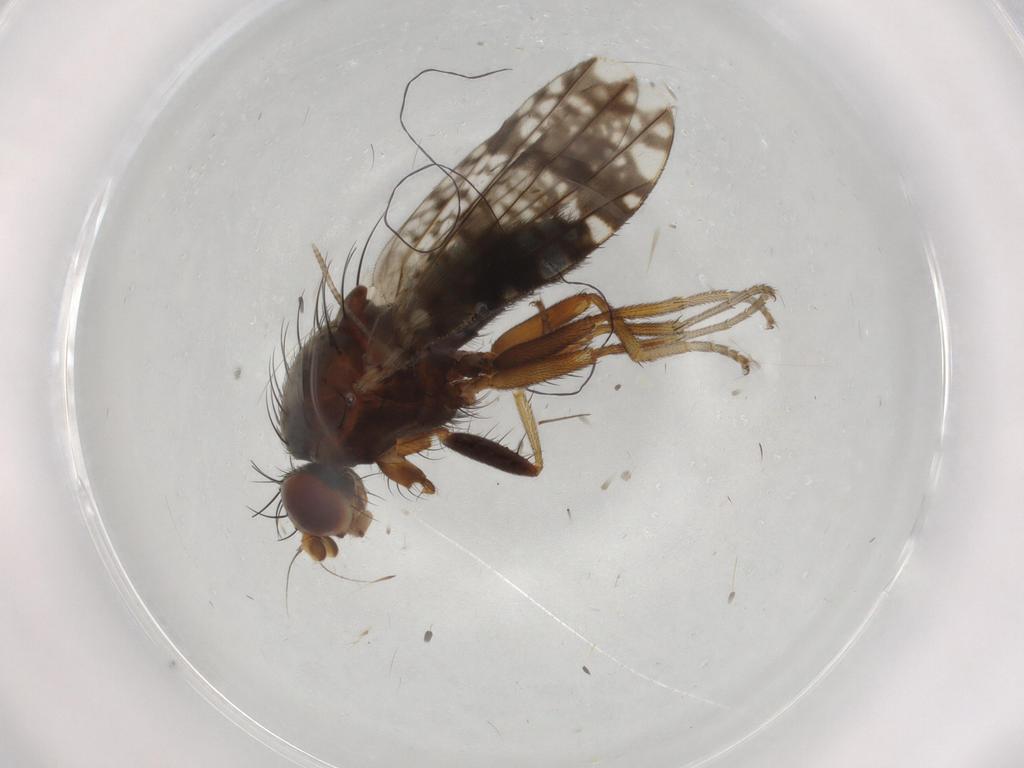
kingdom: Animalia
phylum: Arthropoda
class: Insecta
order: Diptera
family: Tephritidae
